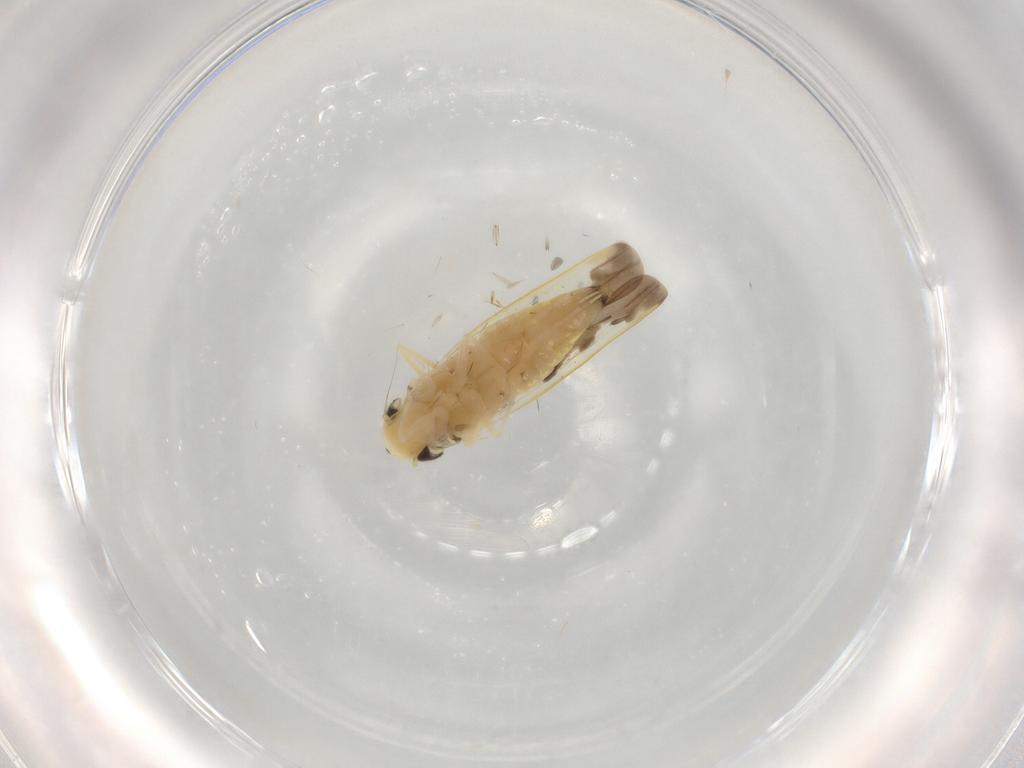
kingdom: Animalia
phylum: Arthropoda
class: Insecta
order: Hemiptera
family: Cicadellidae
